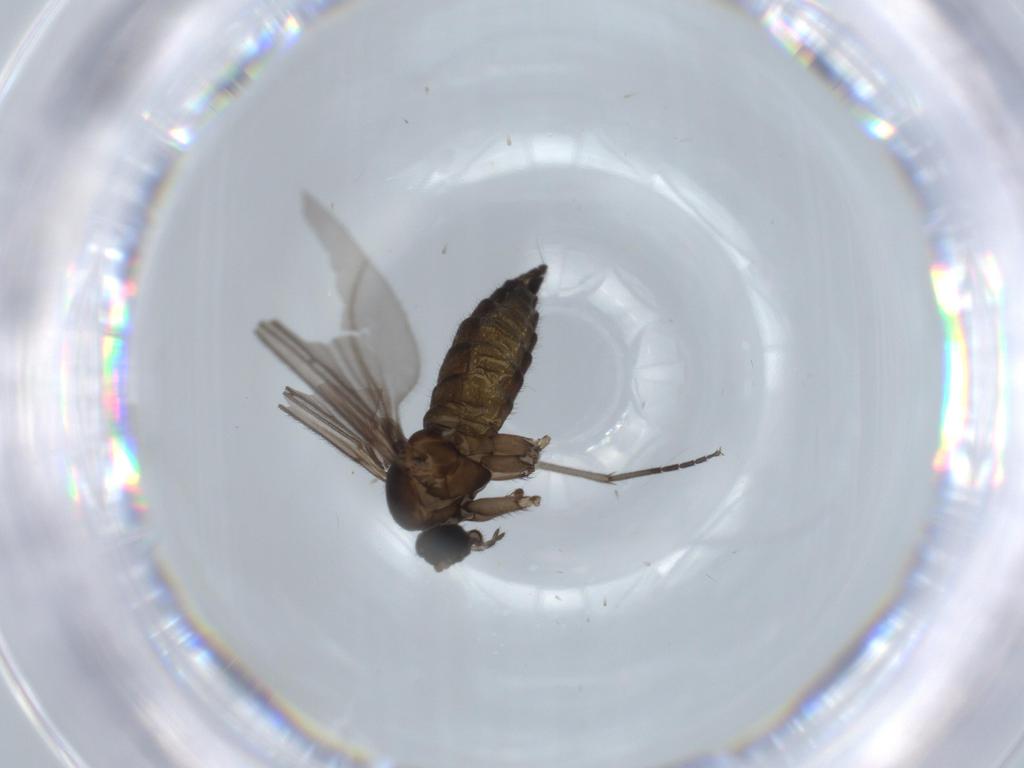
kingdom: Animalia
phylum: Arthropoda
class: Insecta
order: Diptera
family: Sciaridae
